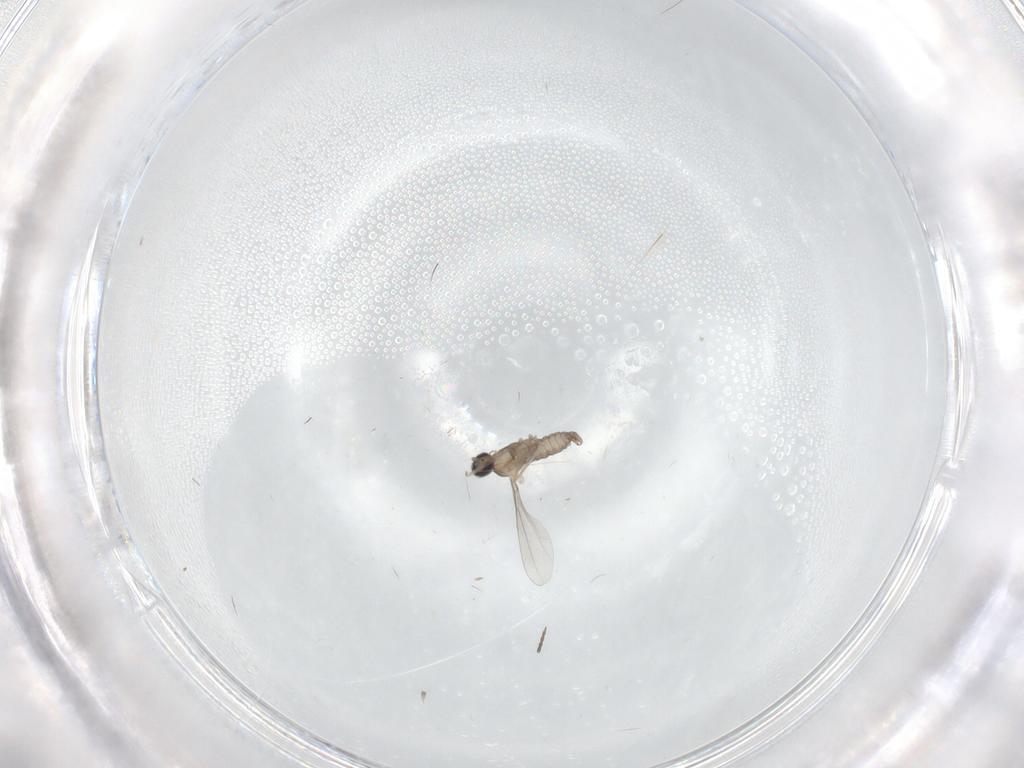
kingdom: Animalia
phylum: Arthropoda
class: Insecta
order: Diptera
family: Cecidomyiidae
